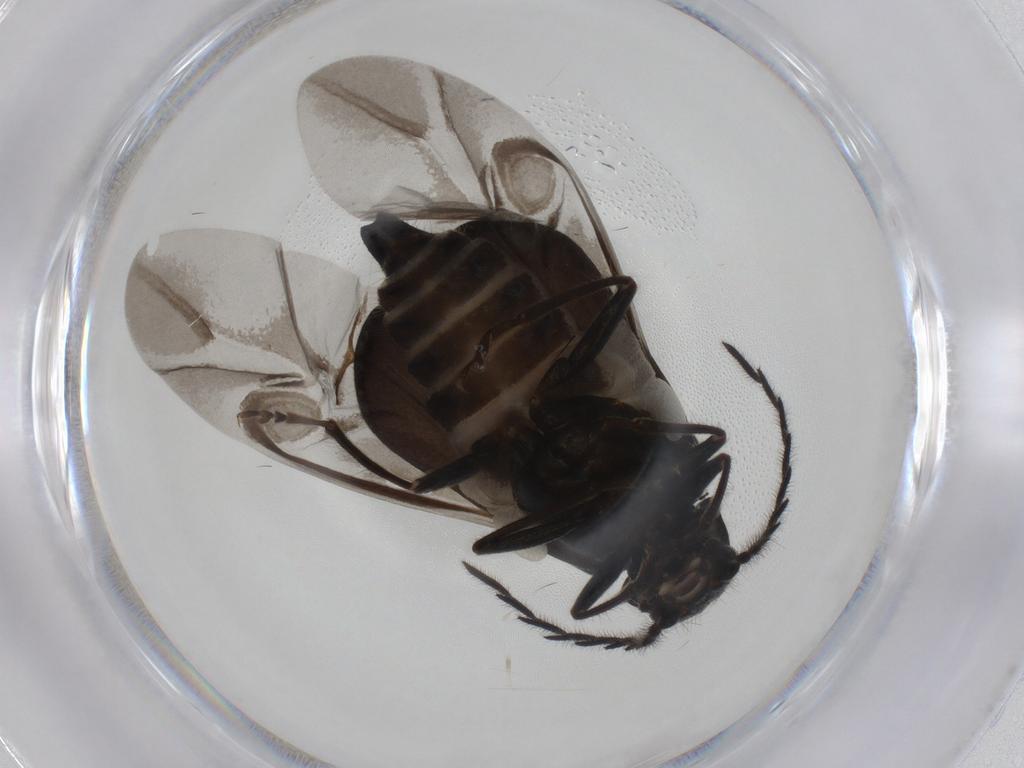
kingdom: Animalia
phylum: Arthropoda
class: Insecta
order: Coleoptera
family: Melyridae
